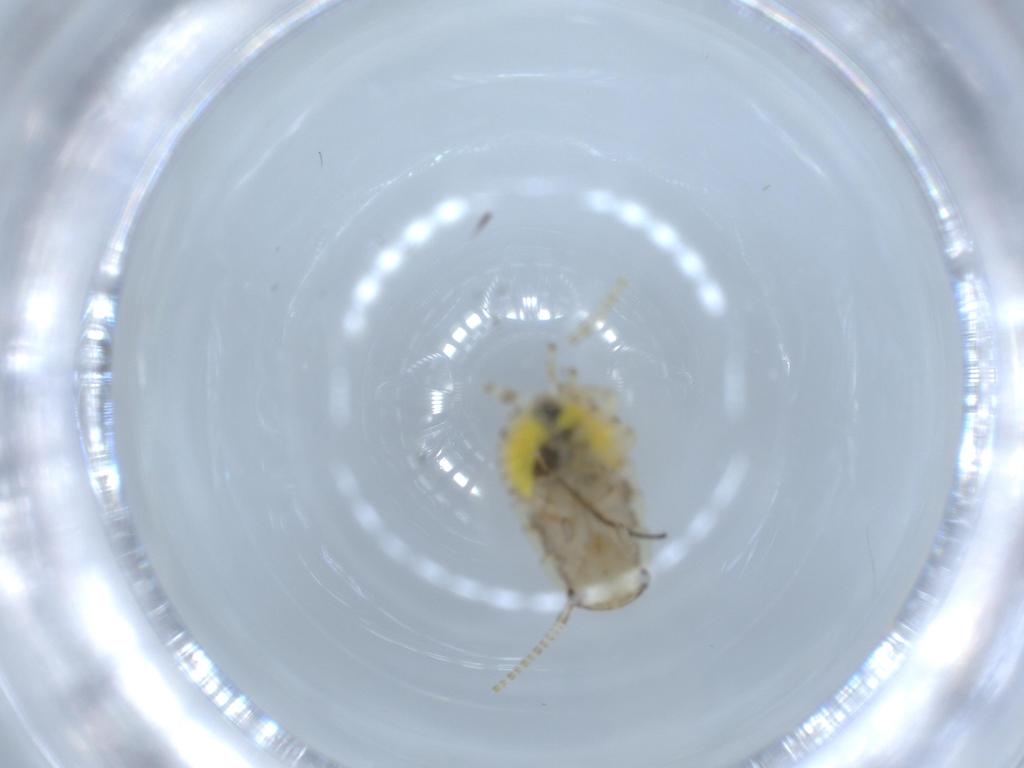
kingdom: Animalia
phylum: Arthropoda
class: Insecta
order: Blattodea
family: Ectobiidae
